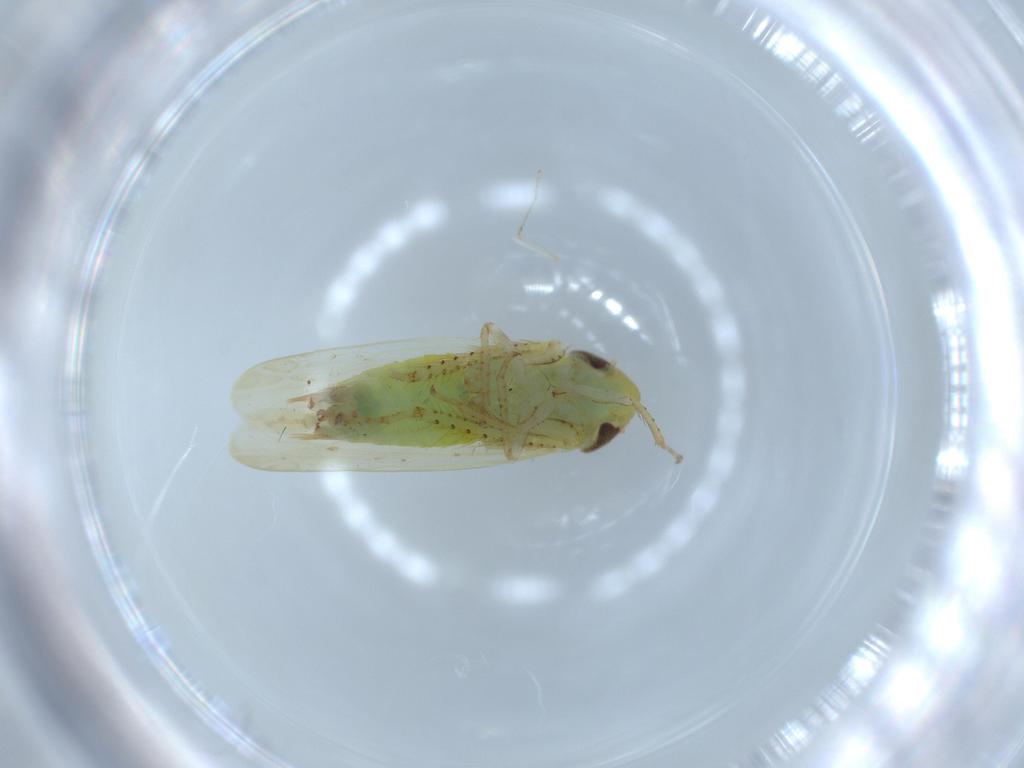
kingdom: Animalia
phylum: Arthropoda
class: Insecta
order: Hemiptera
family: Cicadellidae
